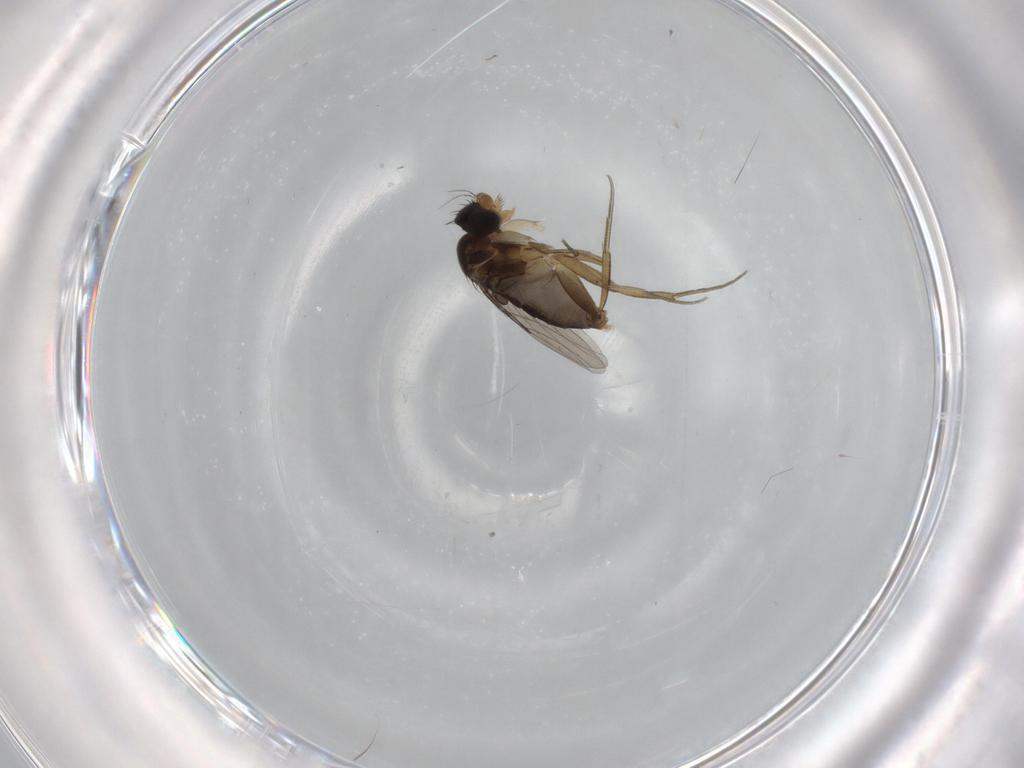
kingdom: Animalia
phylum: Arthropoda
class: Insecta
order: Diptera
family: Phoridae
